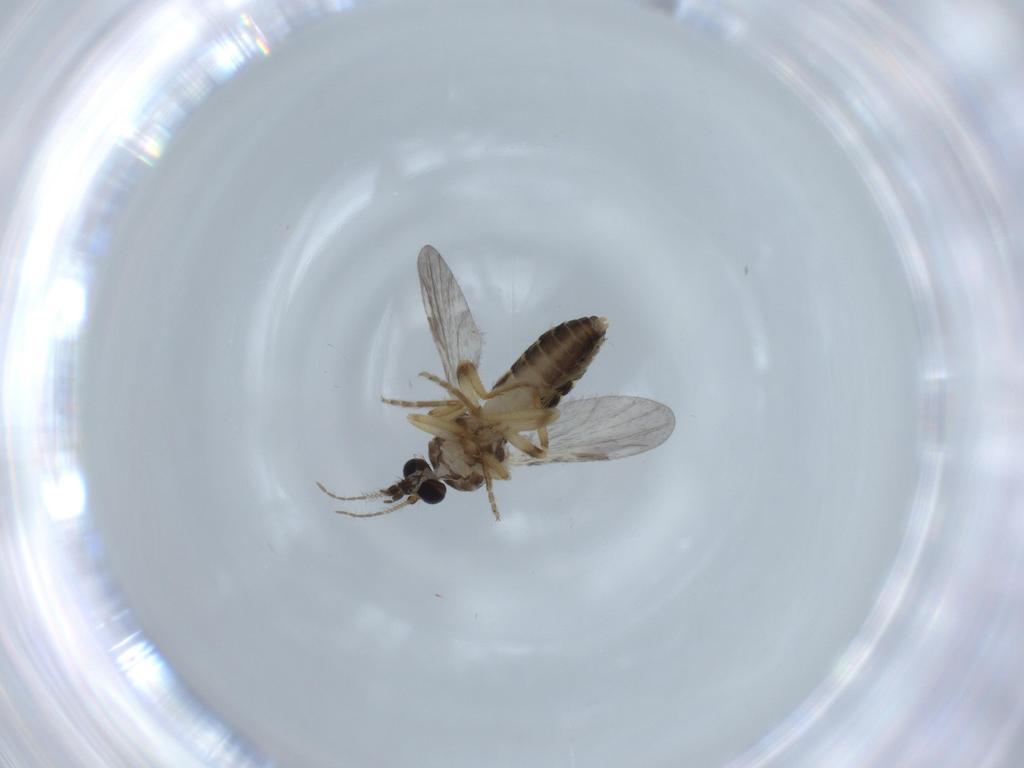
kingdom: Animalia
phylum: Arthropoda
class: Insecta
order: Diptera
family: Ceratopogonidae
